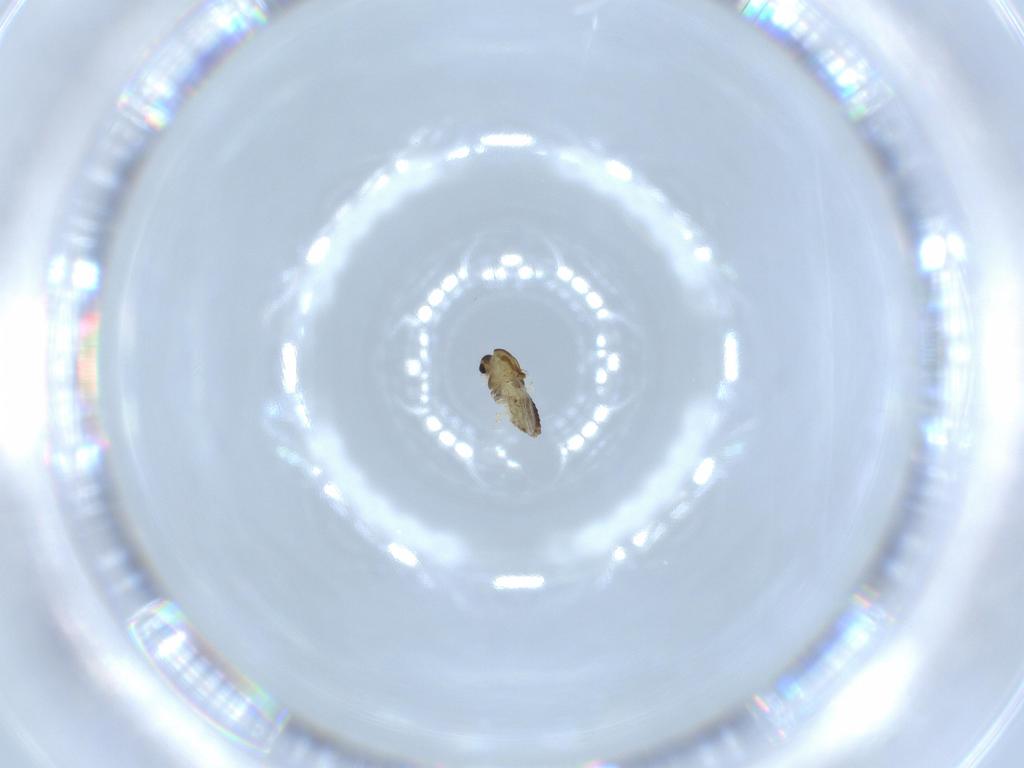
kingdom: Animalia
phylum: Arthropoda
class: Insecta
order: Diptera
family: Chironomidae
